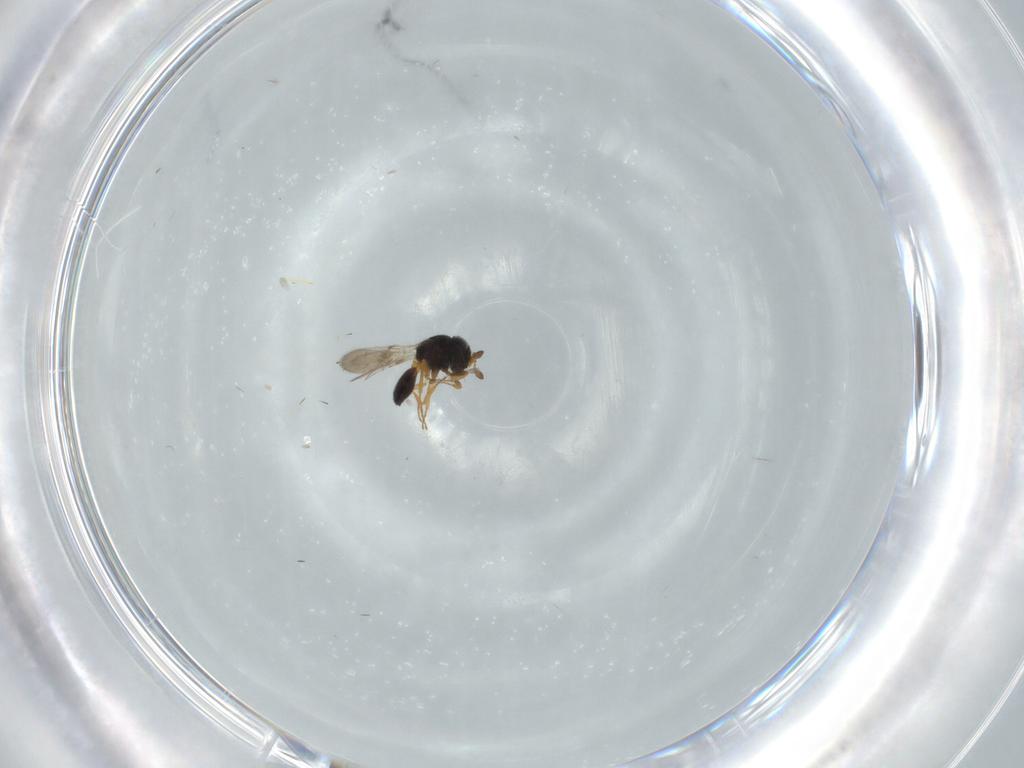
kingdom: Animalia
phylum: Arthropoda
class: Insecta
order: Hymenoptera
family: Scelionidae
